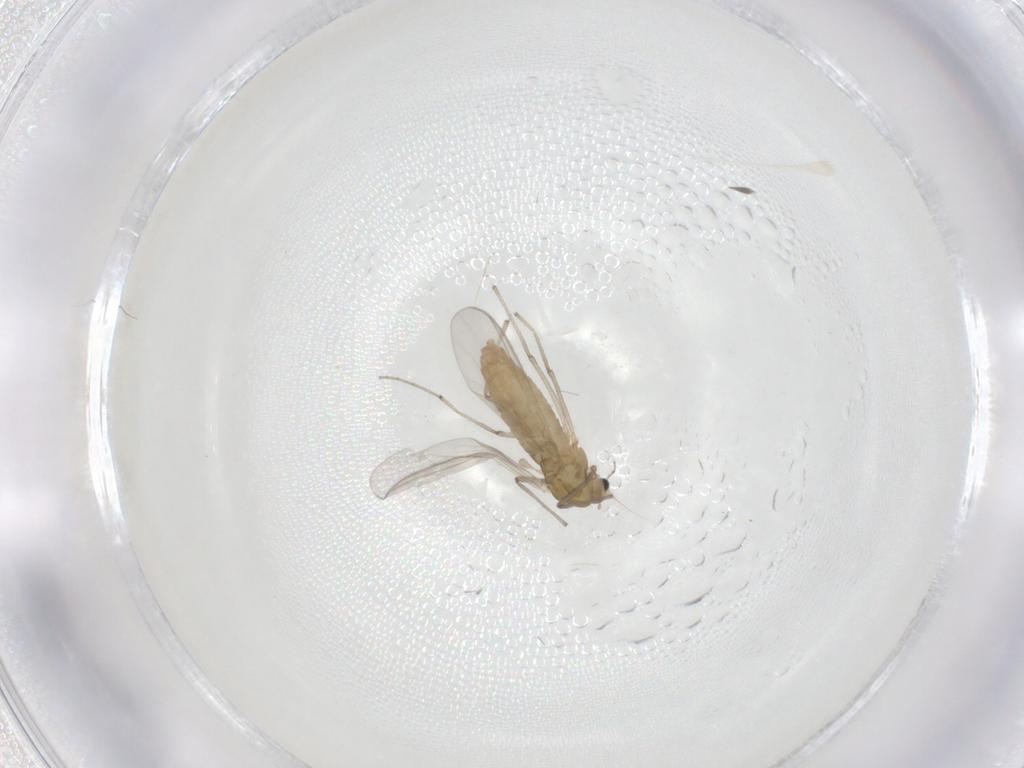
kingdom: Animalia
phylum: Arthropoda
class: Insecta
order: Diptera
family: Chironomidae
